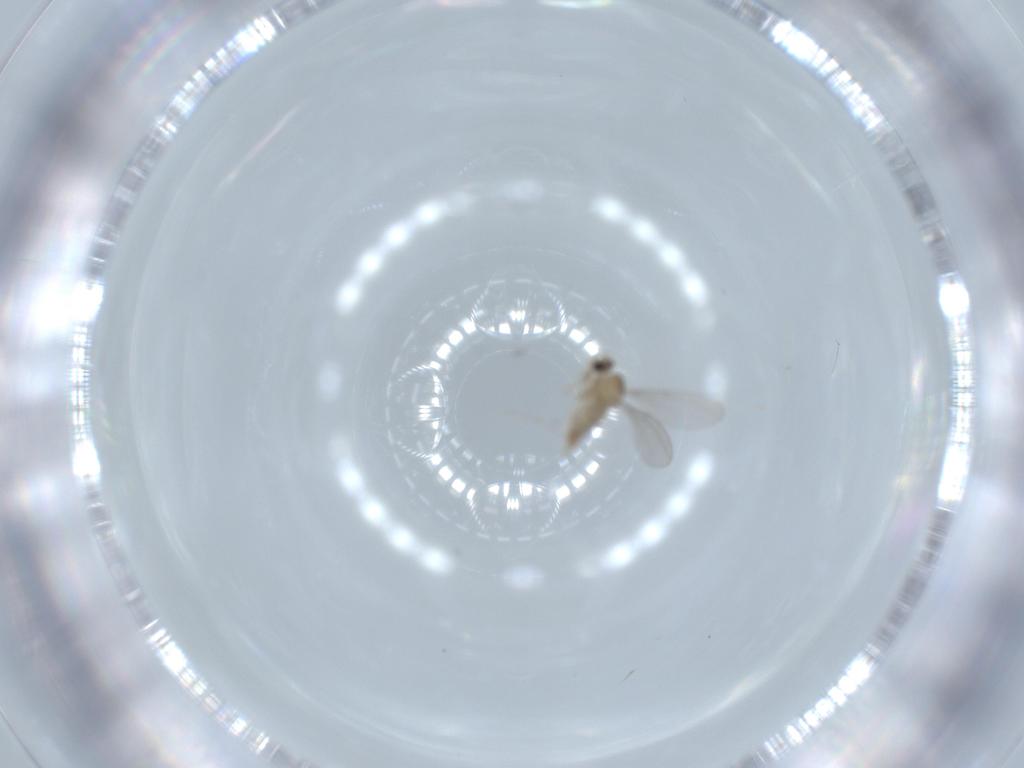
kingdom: Animalia
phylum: Arthropoda
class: Insecta
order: Diptera
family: Cecidomyiidae
